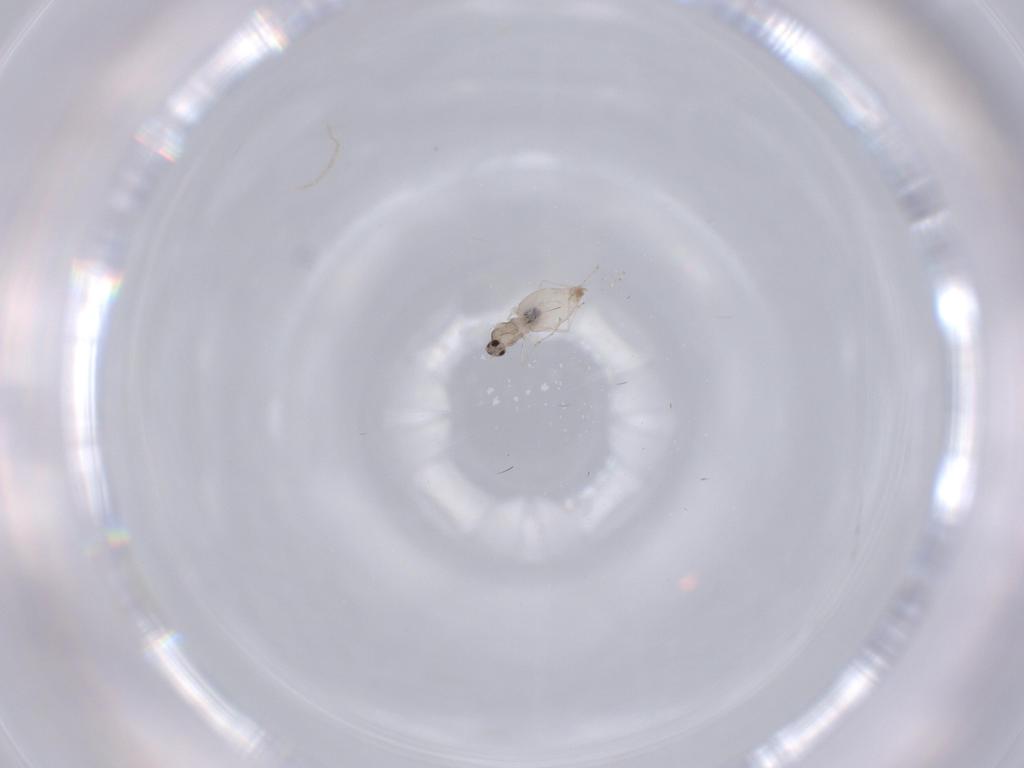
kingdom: Animalia
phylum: Arthropoda
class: Insecta
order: Diptera
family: Cecidomyiidae
